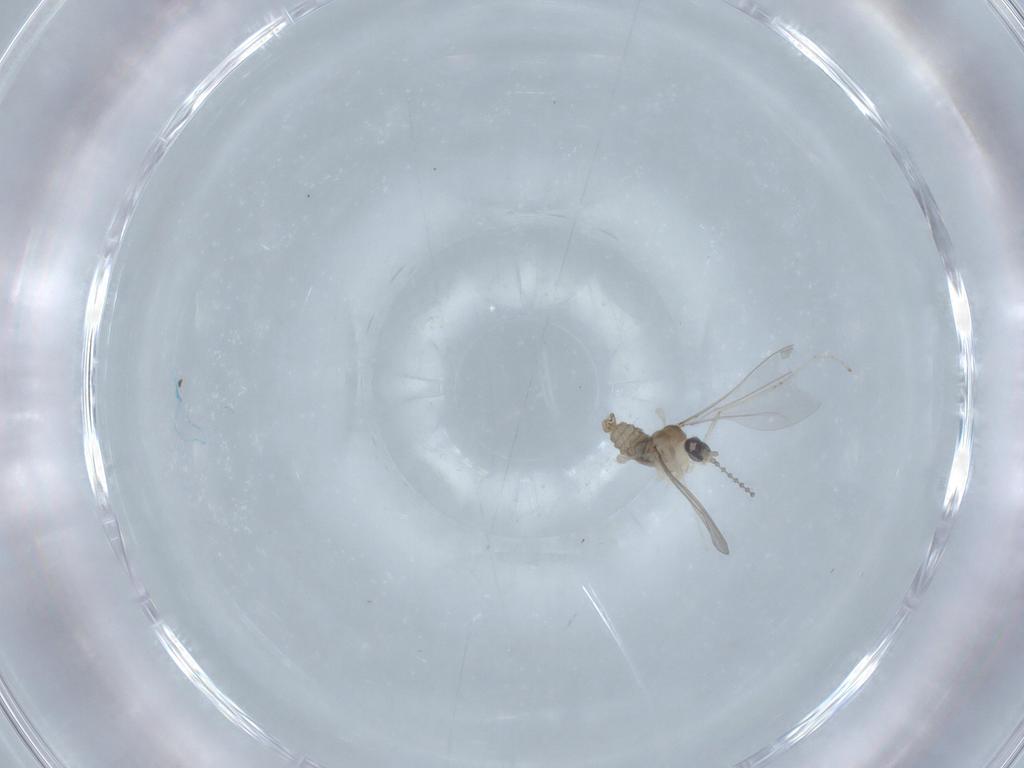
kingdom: Animalia
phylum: Arthropoda
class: Insecta
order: Diptera
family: Cecidomyiidae
